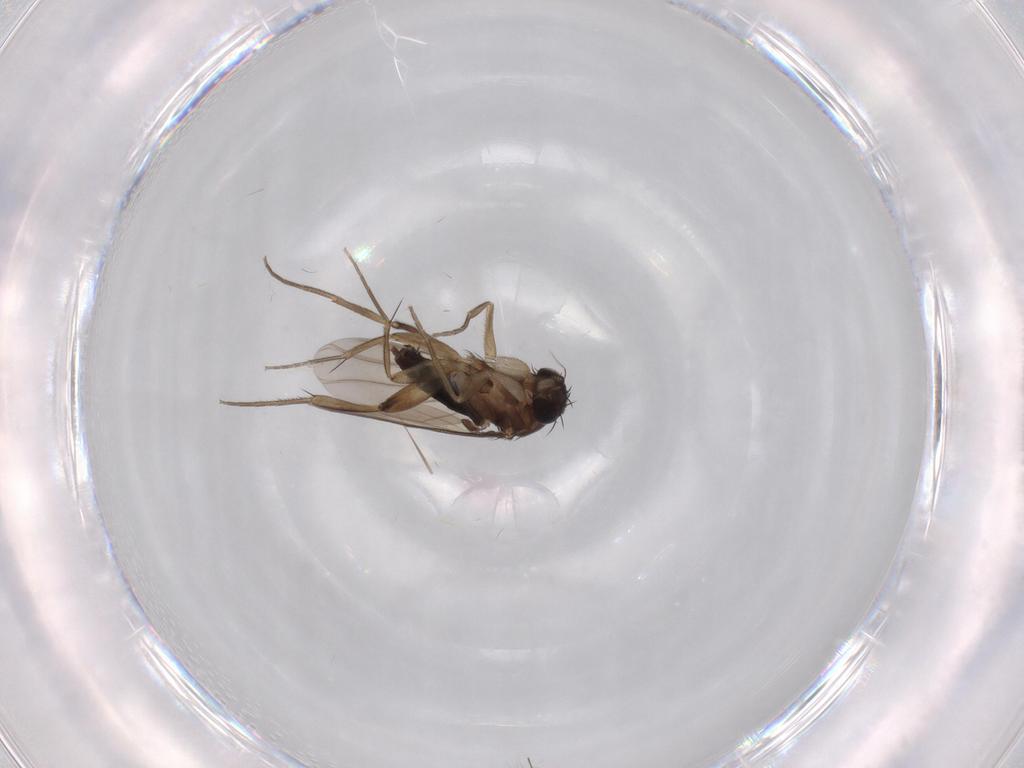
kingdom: Animalia
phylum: Arthropoda
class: Insecta
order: Diptera
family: Phoridae
